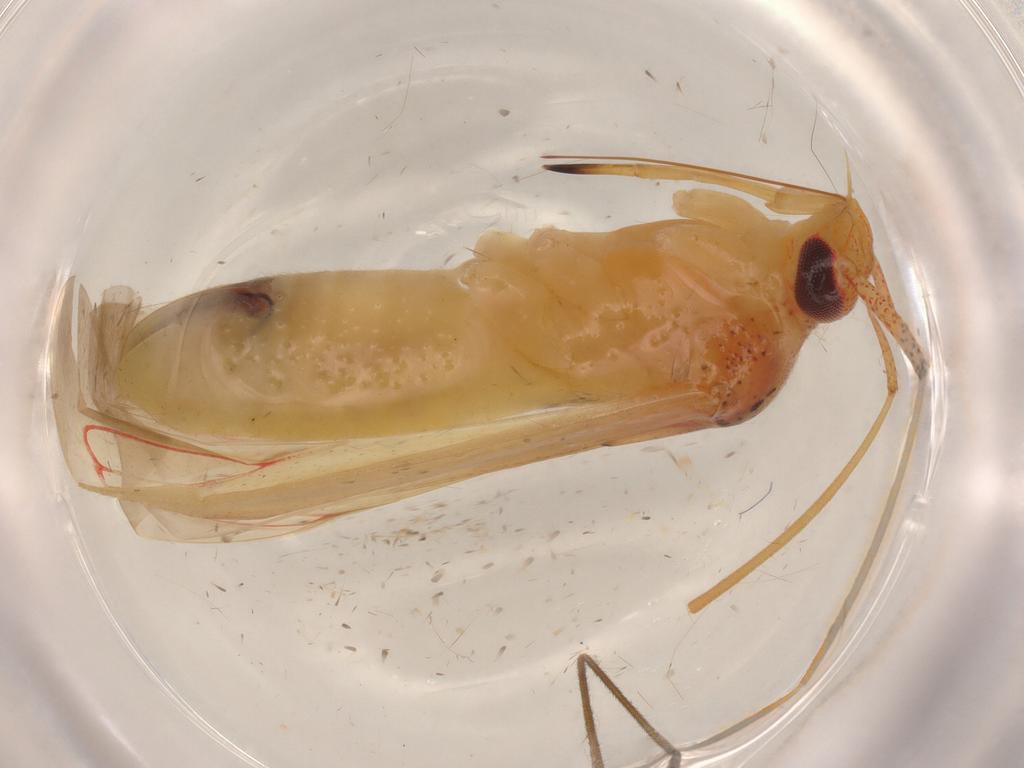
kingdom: Animalia
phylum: Arthropoda
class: Insecta
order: Hemiptera
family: Miridae
